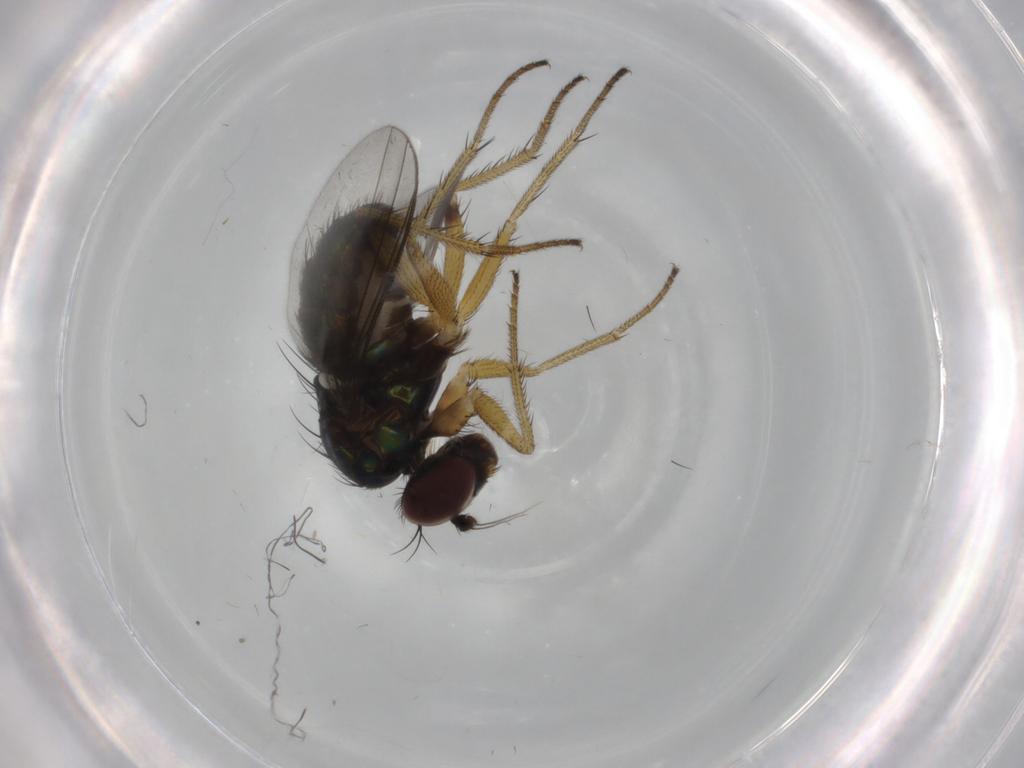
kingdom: Animalia
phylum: Arthropoda
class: Insecta
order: Diptera
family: Dolichopodidae
